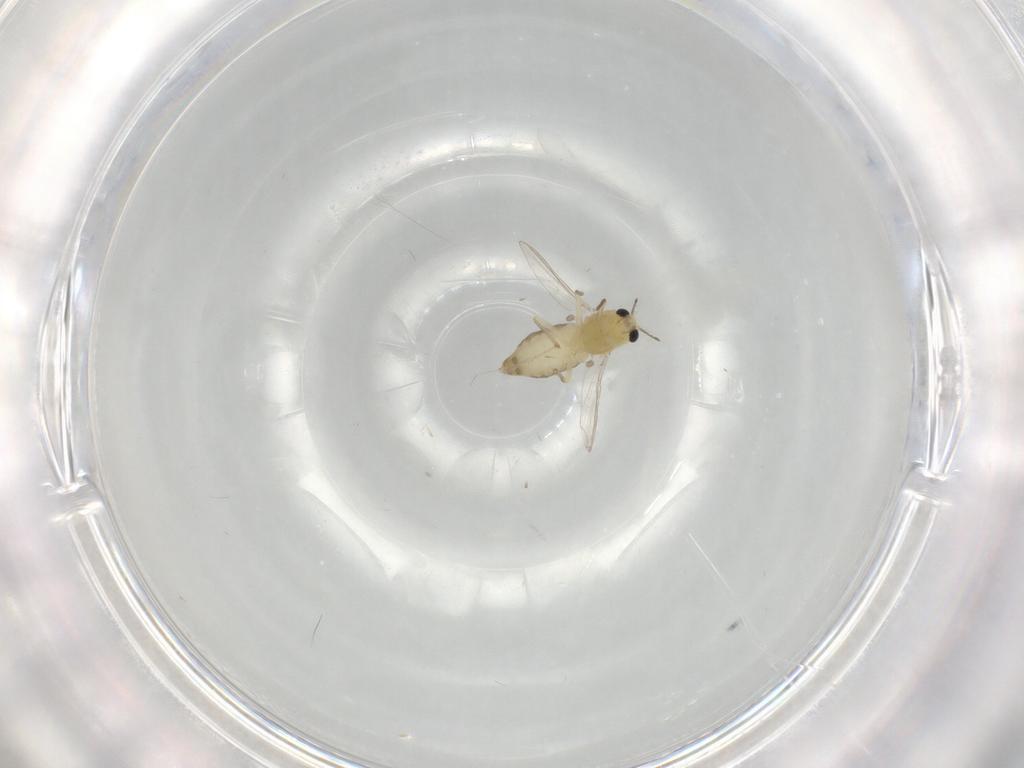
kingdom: Animalia
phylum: Arthropoda
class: Insecta
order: Diptera
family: Chironomidae
